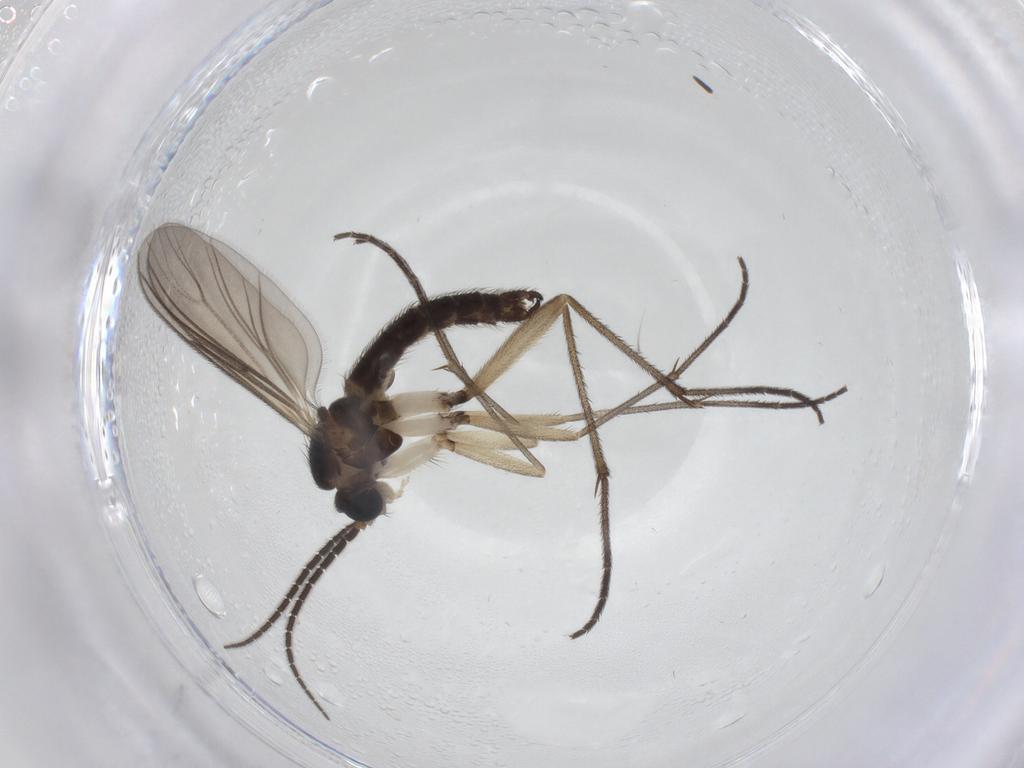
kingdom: Animalia
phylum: Arthropoda
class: Insecta
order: Diptera
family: Sciaridae
